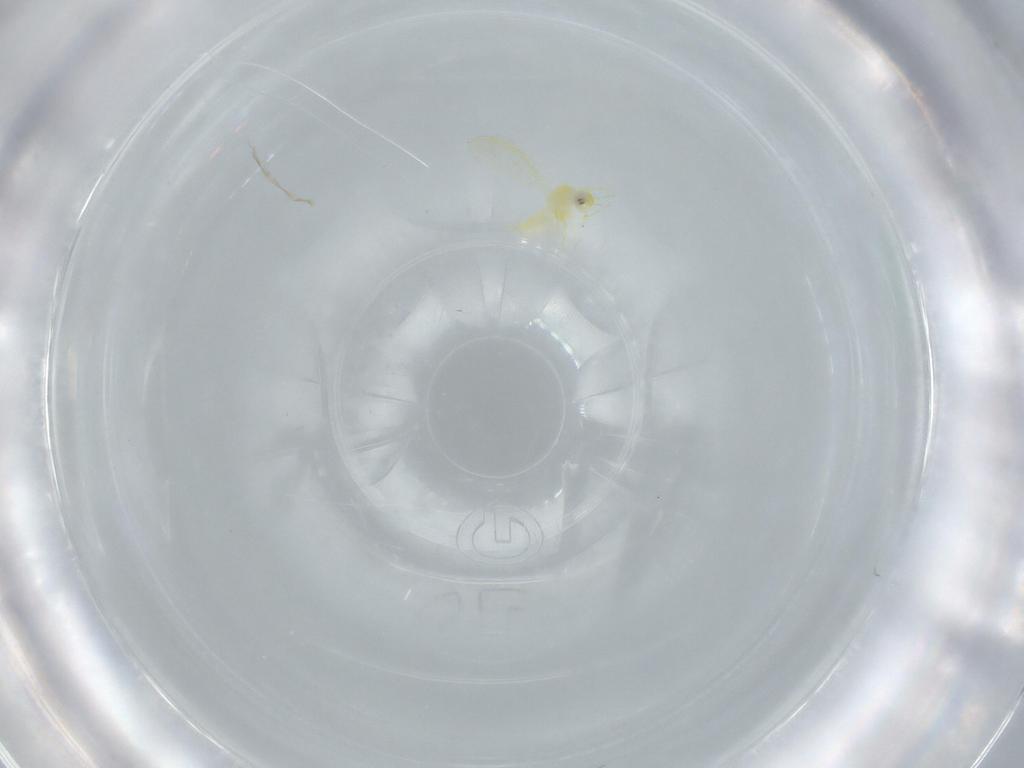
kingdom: Animalia
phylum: Arthropoda
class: Insecta
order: Hemiptera
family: Aleyrodidae
